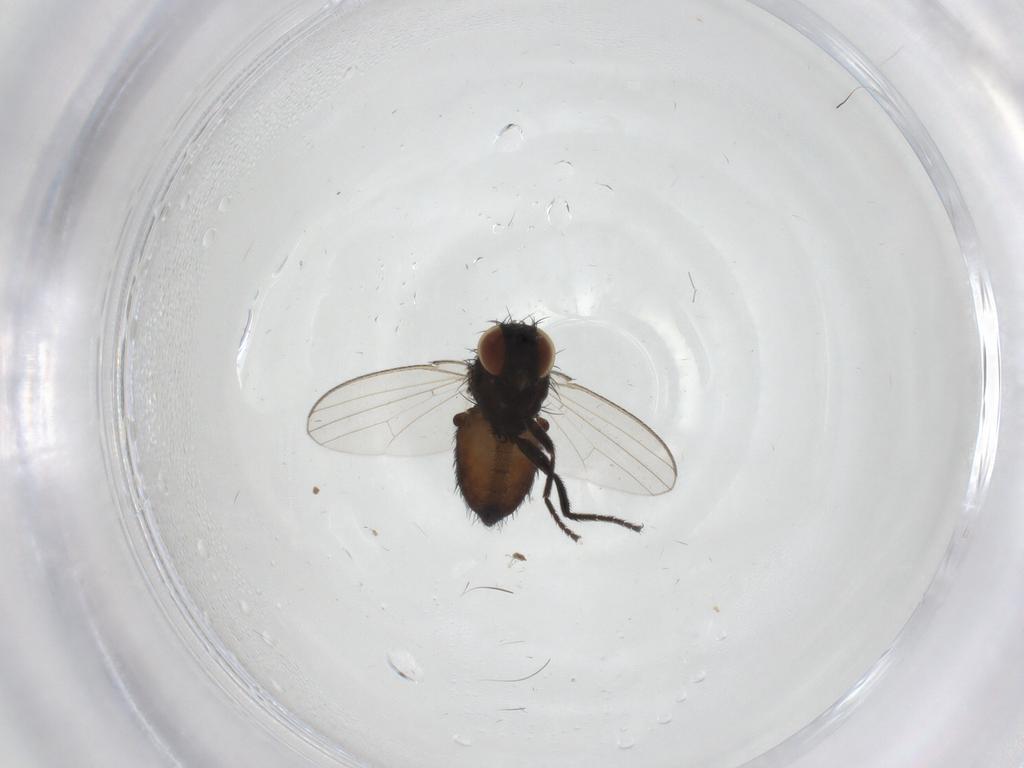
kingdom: Animalia
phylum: Arthropoda
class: Insecta
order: Diptera
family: Milichiidae
